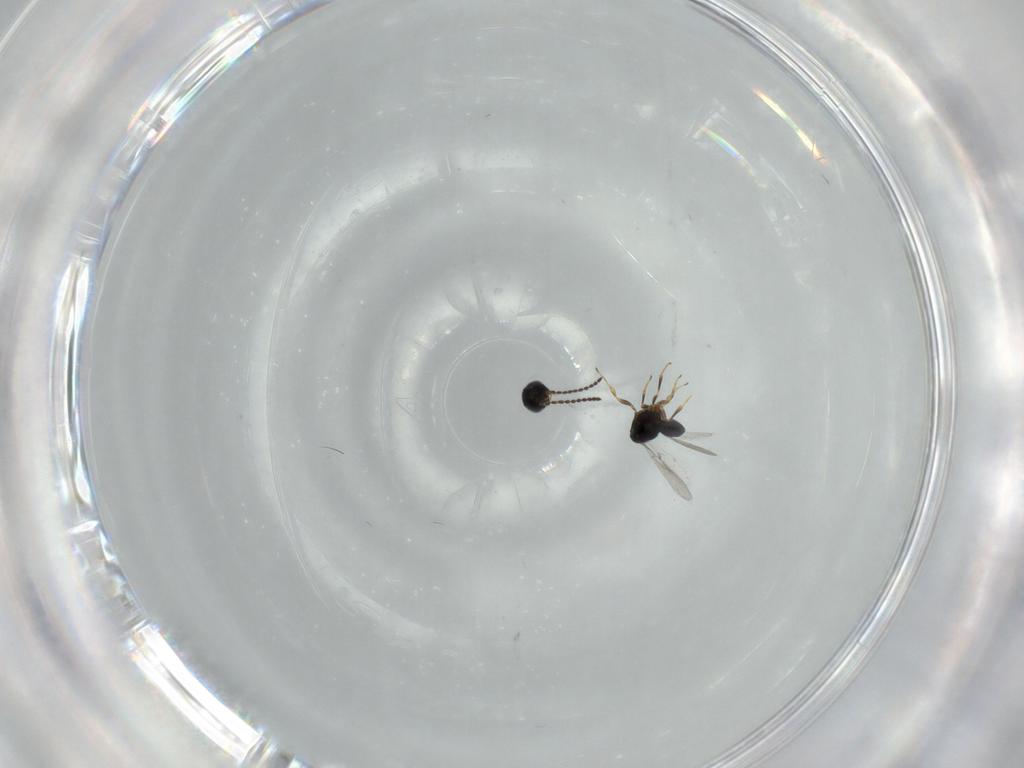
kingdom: Animalia
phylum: Arthropoda
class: Insecta
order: Hymenoptera
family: Scelionidae
